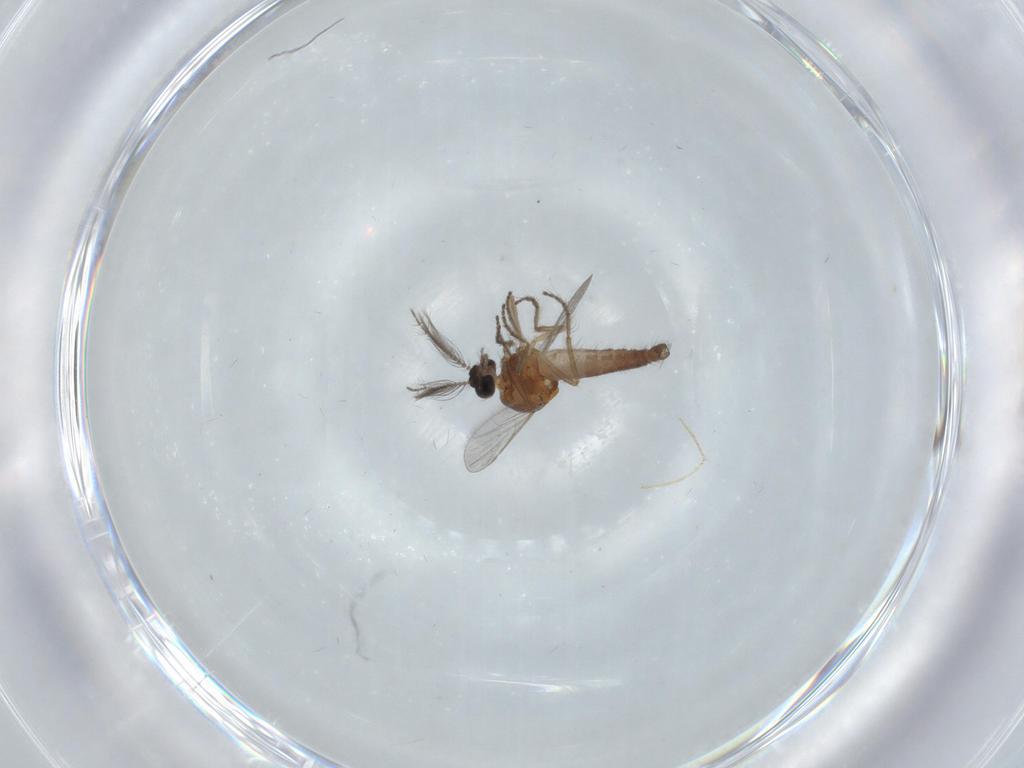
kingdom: Animalia
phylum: Arthropoda
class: Insecta
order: Diptera
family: Ceratopogonidae
